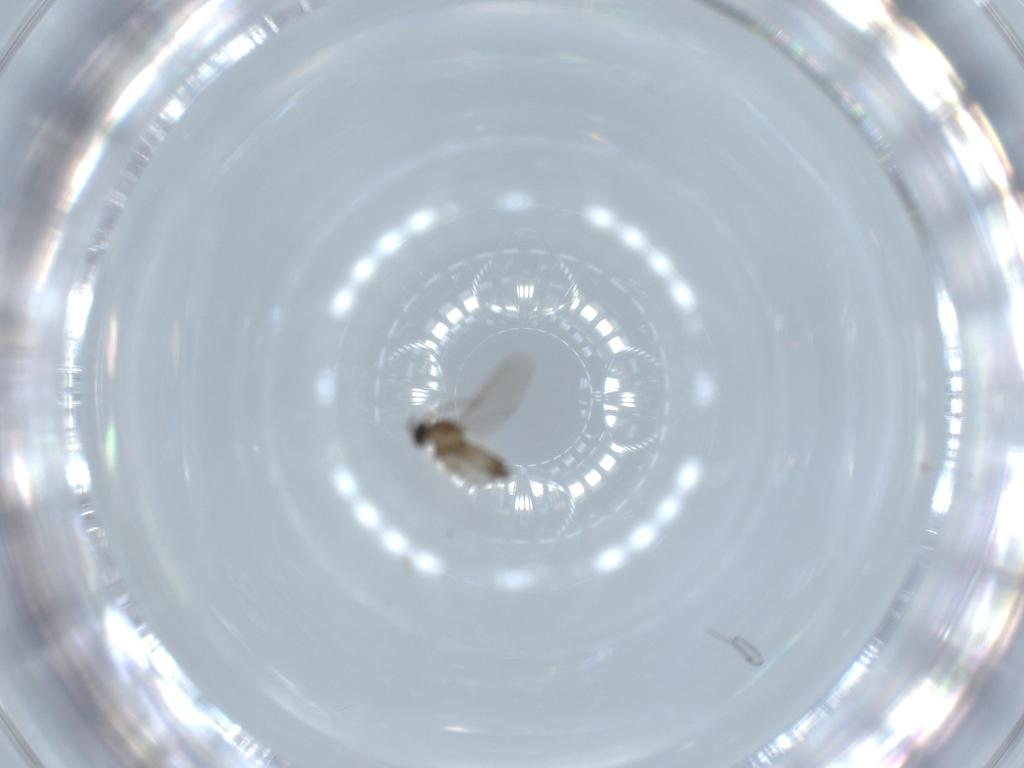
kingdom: Animalia
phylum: Arthropoda
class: Insecta
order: Diptera
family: Cecidomyiidae
